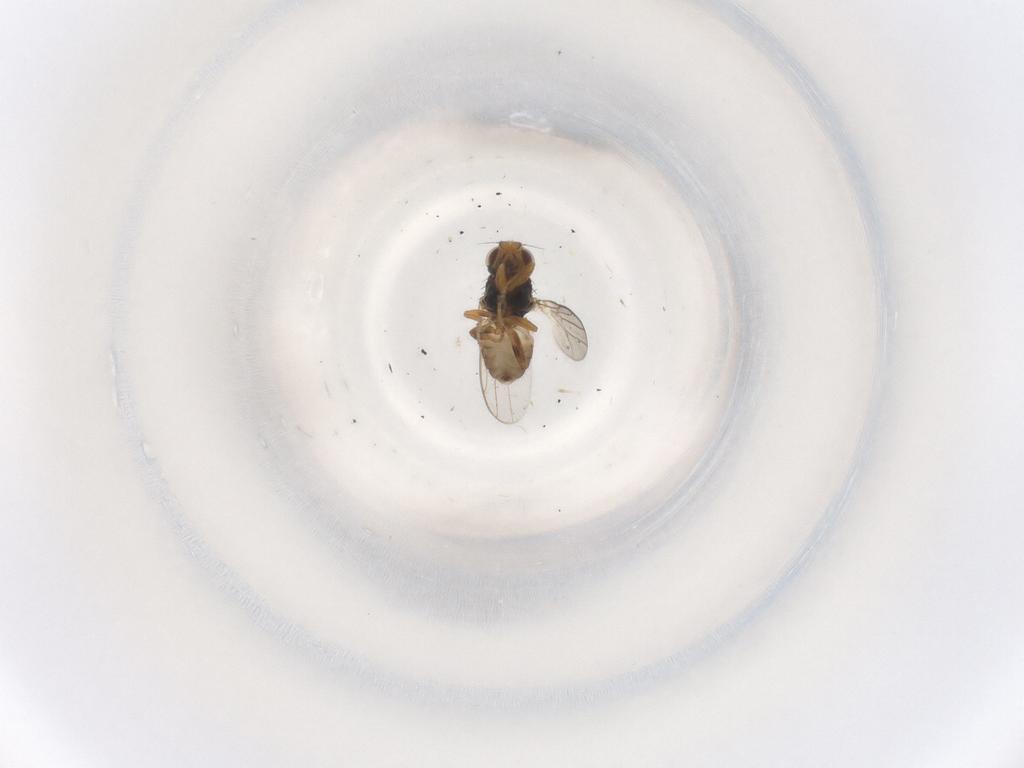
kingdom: Animalia
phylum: Arthropoda
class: Insecta
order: Diptera
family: Chloropidae
